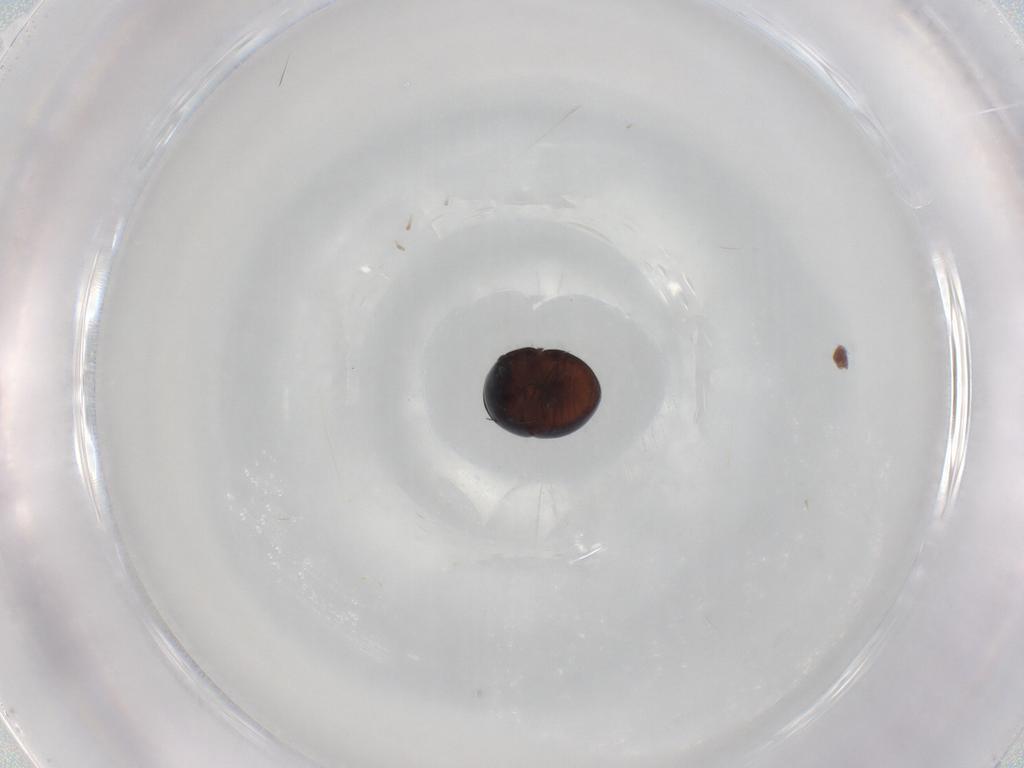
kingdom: Animalia
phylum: Arthropoda
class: Insecta
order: Coleoptera
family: Cybocephalidae
